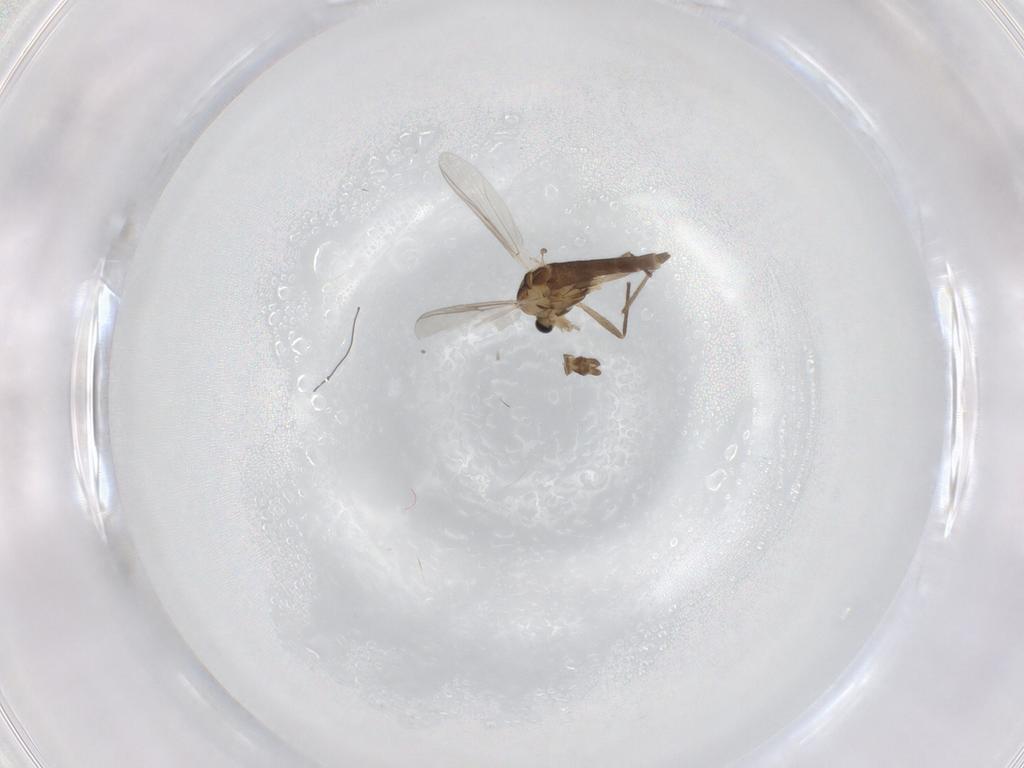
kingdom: Animalia
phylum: Arthropoda
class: Insecta
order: Diptera
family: Chironomidae
